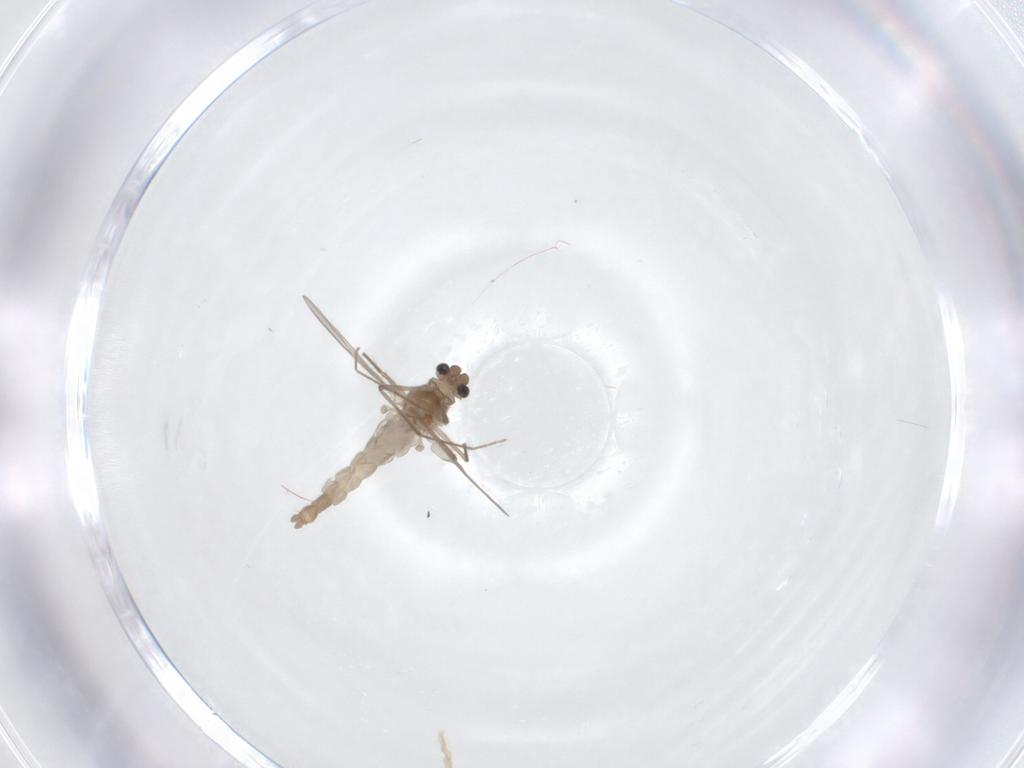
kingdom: Animalia
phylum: Arthropoda
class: Insecta
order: Diptera
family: Chironomidae
